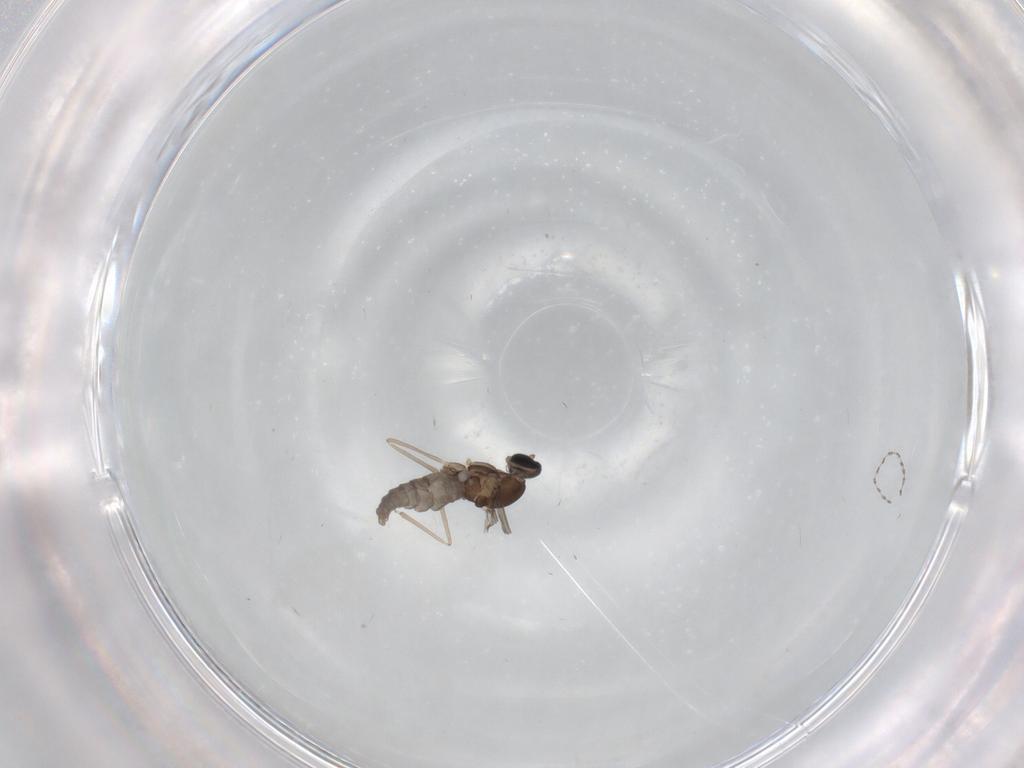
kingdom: Animalia
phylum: Arthropoda
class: Insecta
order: Diptera
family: Cecidomyiidae
